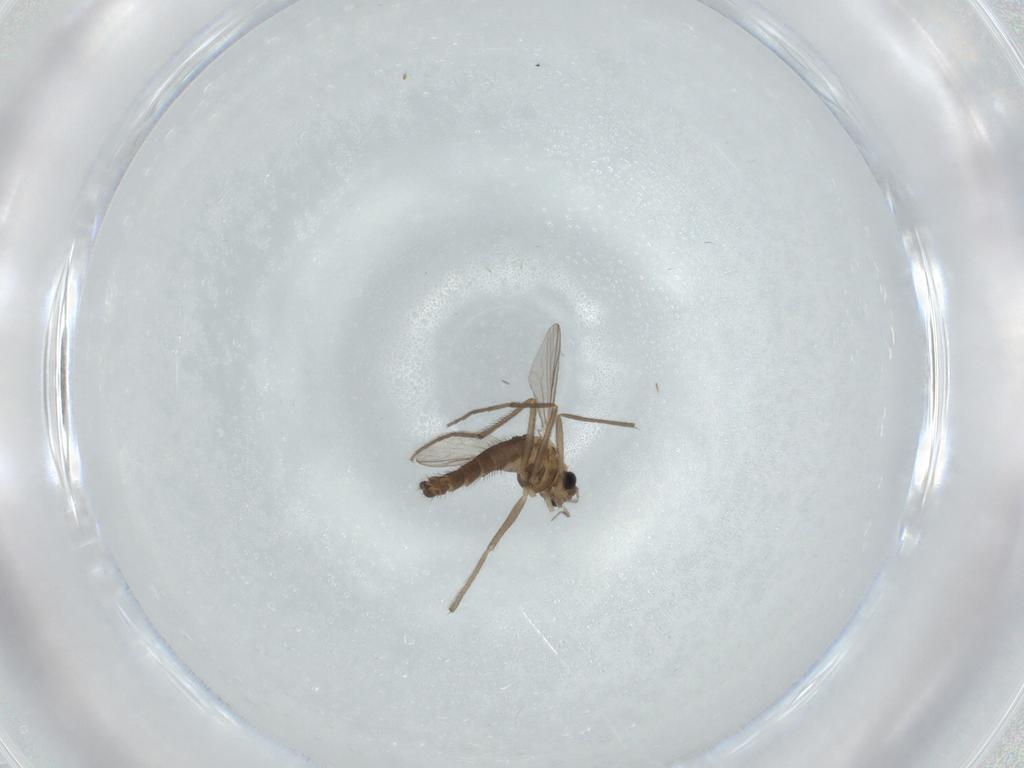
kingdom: Animalia
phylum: Arthropoda
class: Insecta
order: Diptera
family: Chironomidae
